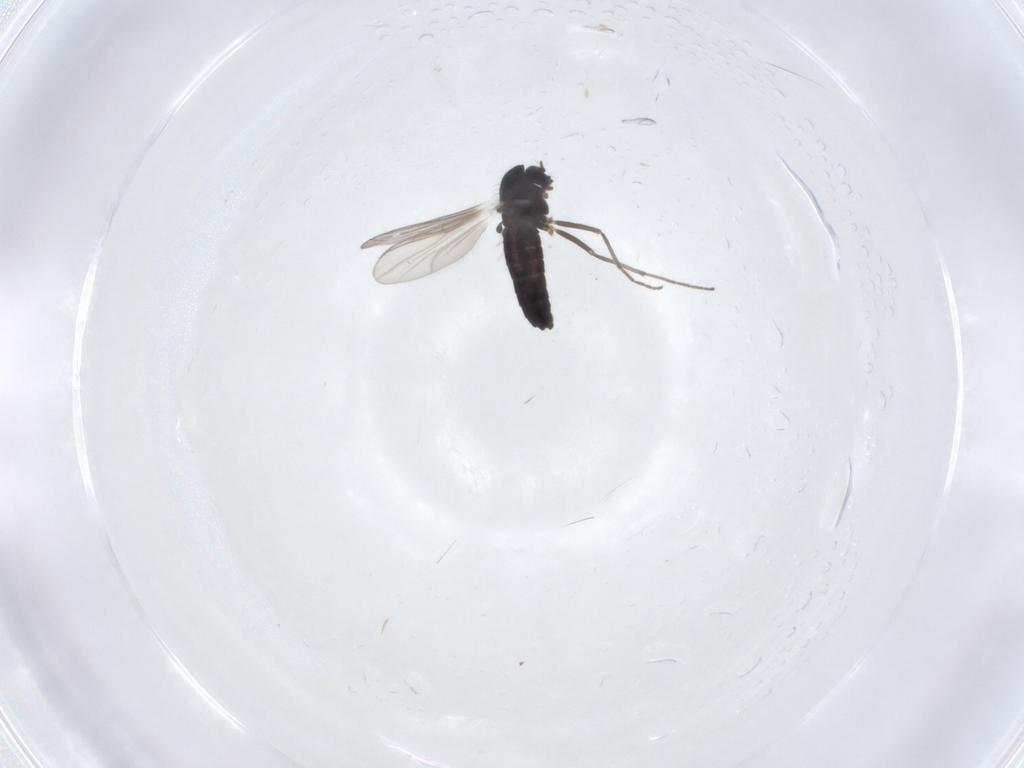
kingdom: Animalia
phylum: Arthropoda
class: Insecta
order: Diptera
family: Chironomidae
